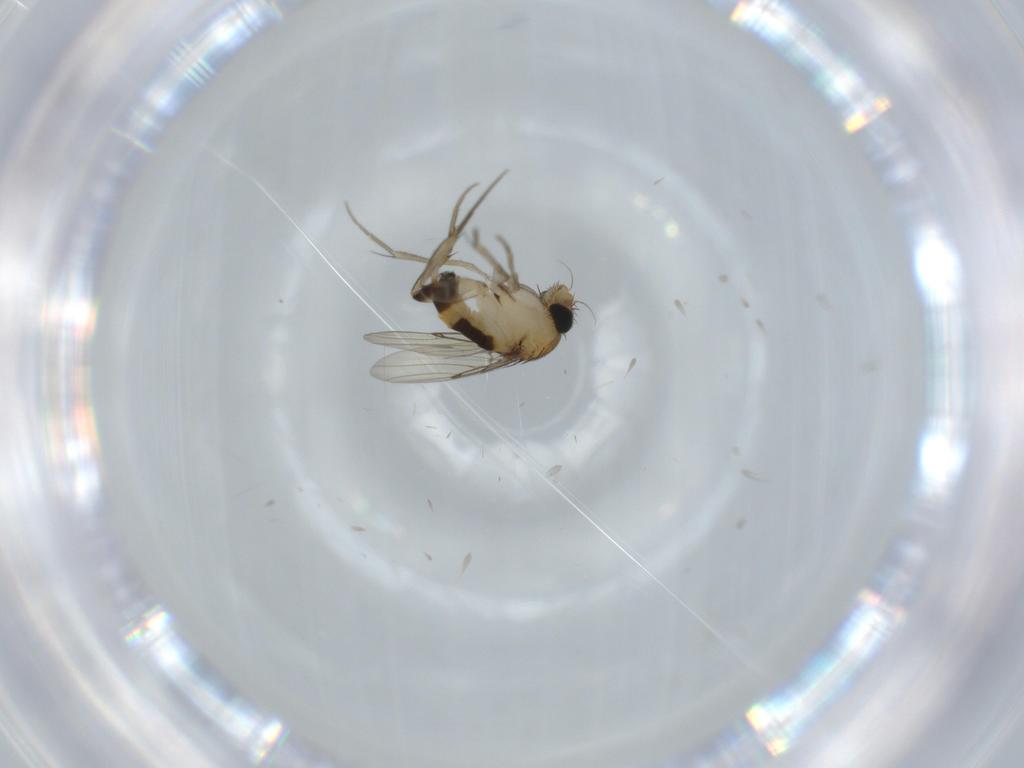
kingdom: Animalia
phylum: Arthropoda
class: Insecta
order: Diptera
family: Phoridae
